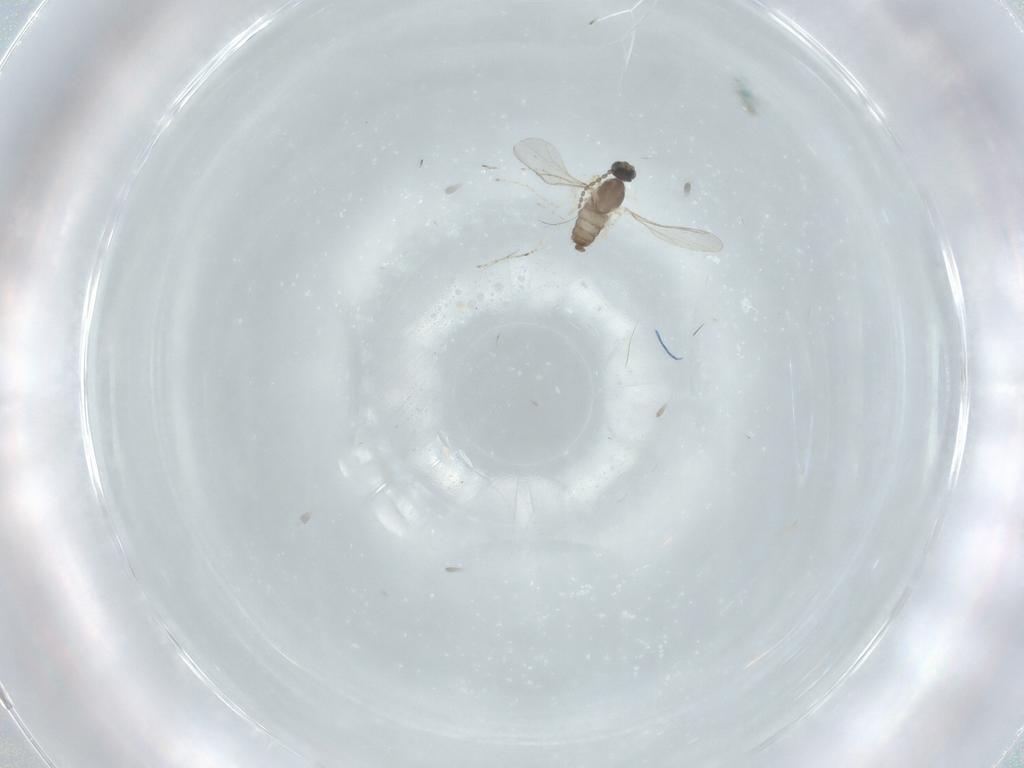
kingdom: Animalia
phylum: Arthropoda
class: Insecta
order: Diptera
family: Cecidomyiidae
